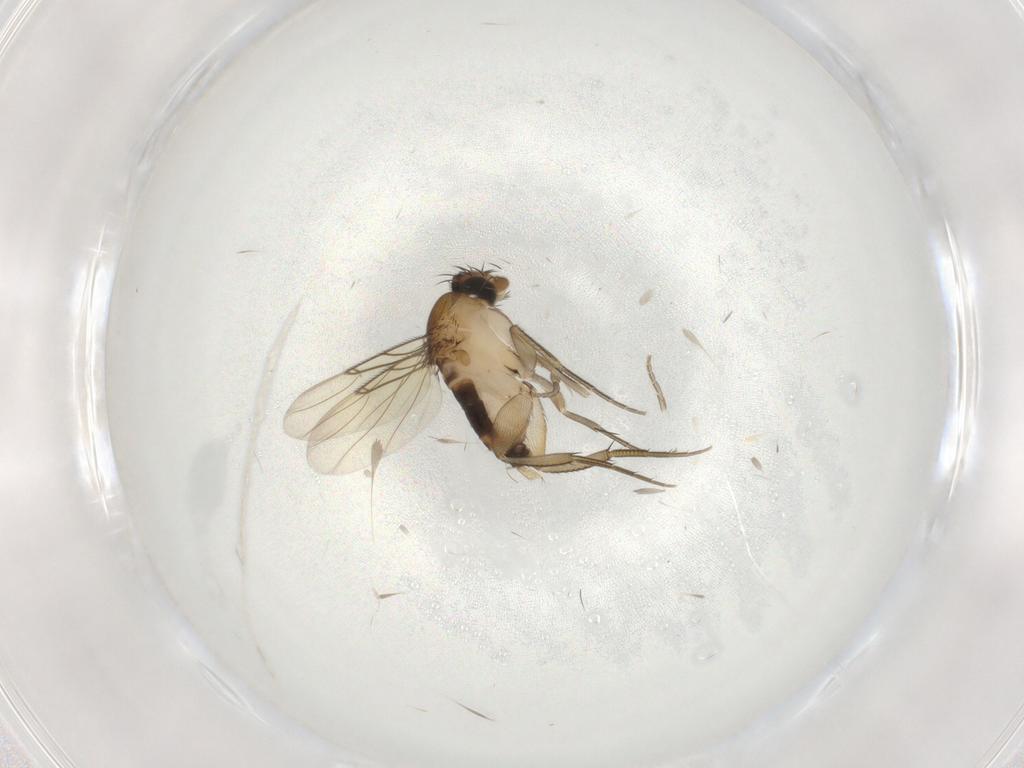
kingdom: Animalia
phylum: Arthropoda
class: Insecta
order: Diptera
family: Phoridae
